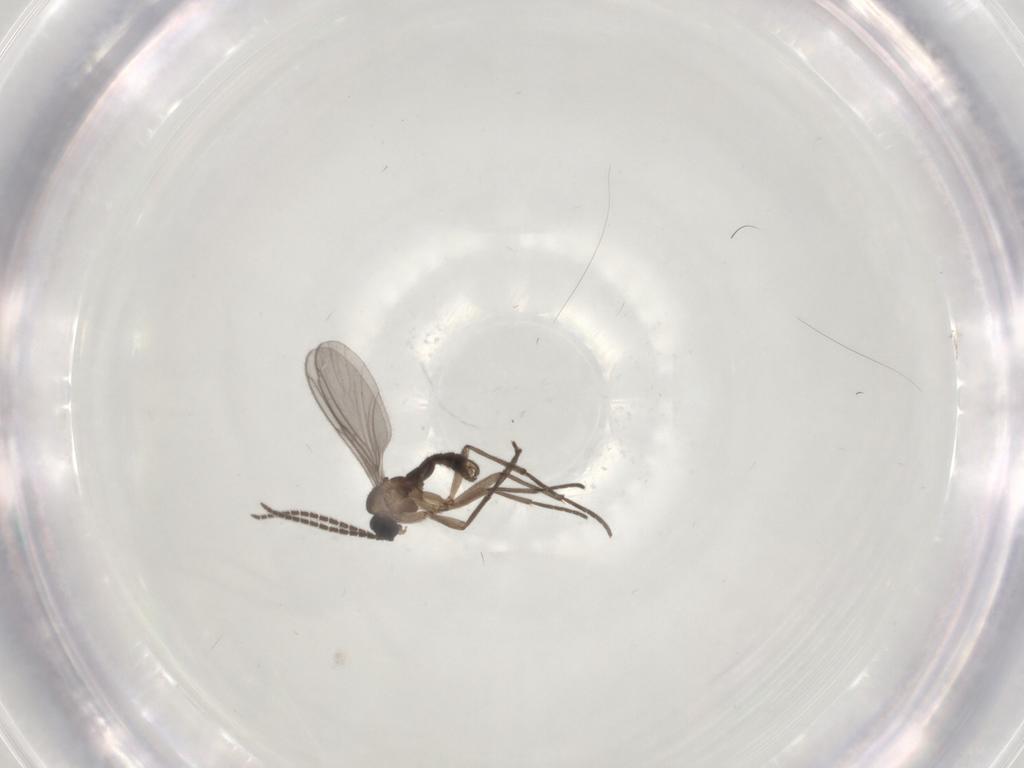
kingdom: Animalia
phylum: Arthropoda
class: Insecta
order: Diptera
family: Sciaridae
